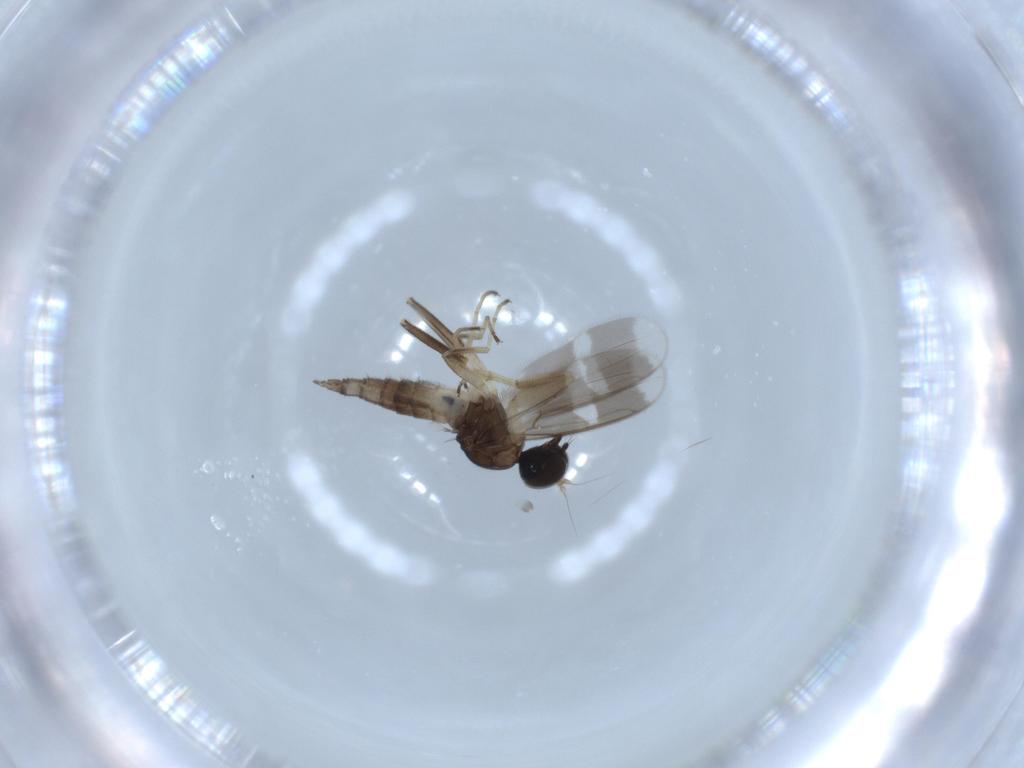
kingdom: Animalia
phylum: Arthropoda
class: Insecta
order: Diptera
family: Hybotidae
